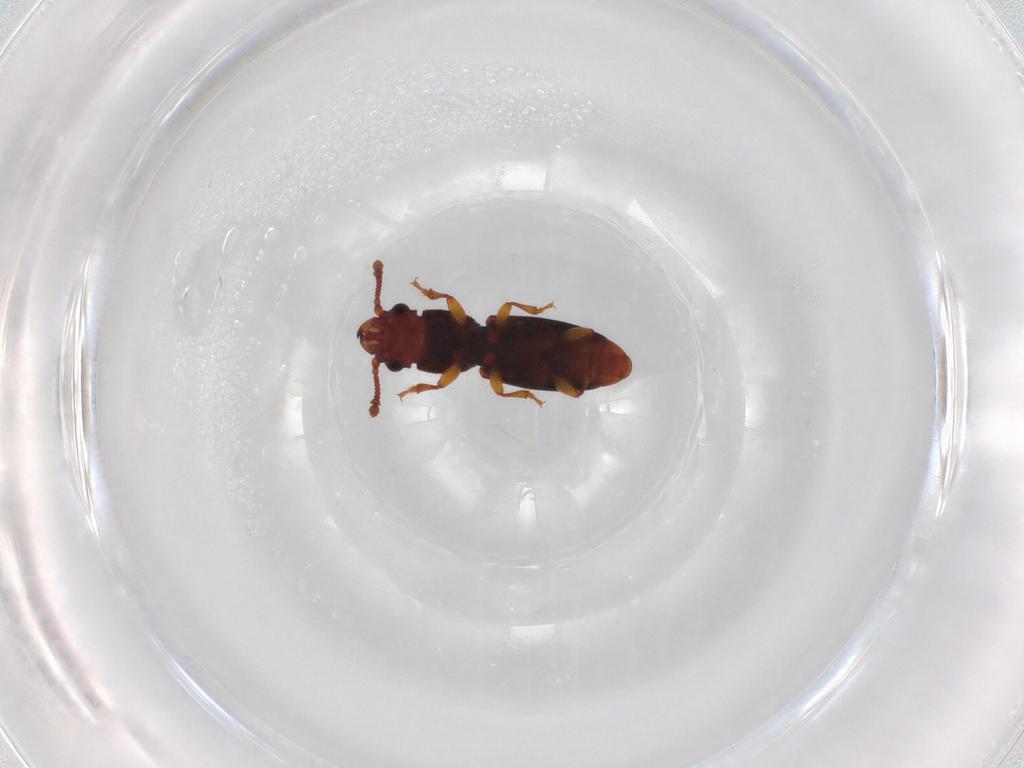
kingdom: Animalia
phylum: Arthropoda
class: Insecta
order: Coleoptera
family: Monotomidae
